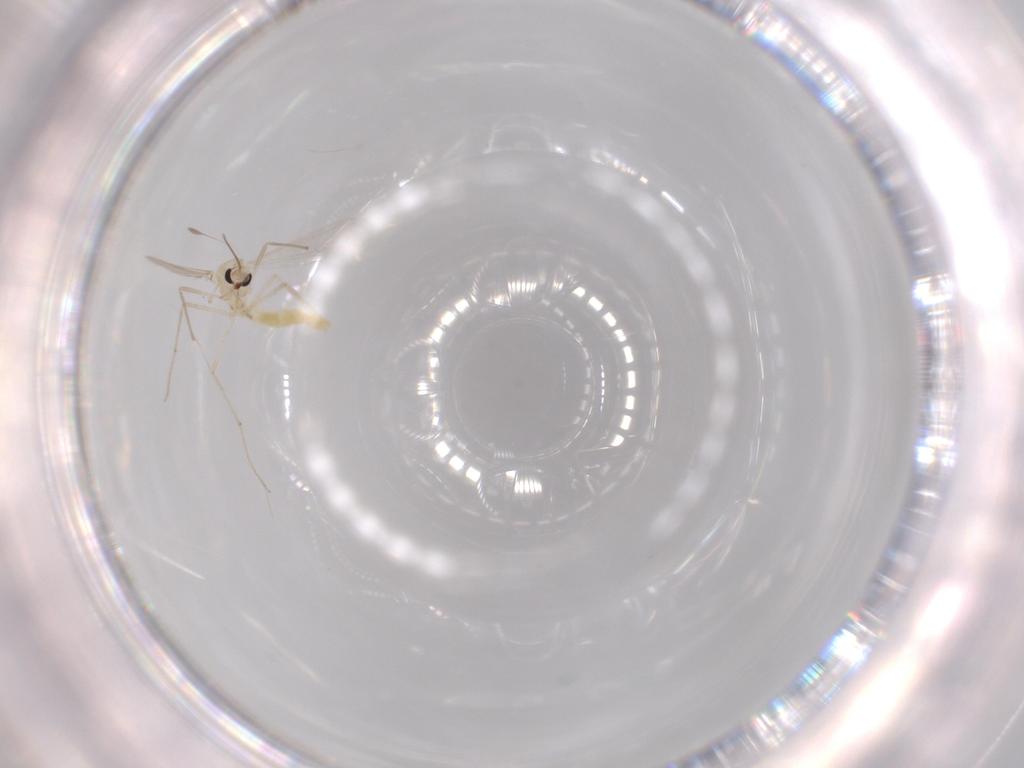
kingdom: Animalia
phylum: Arthropoda
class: Insecta
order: Diptera
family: Chironomidae
